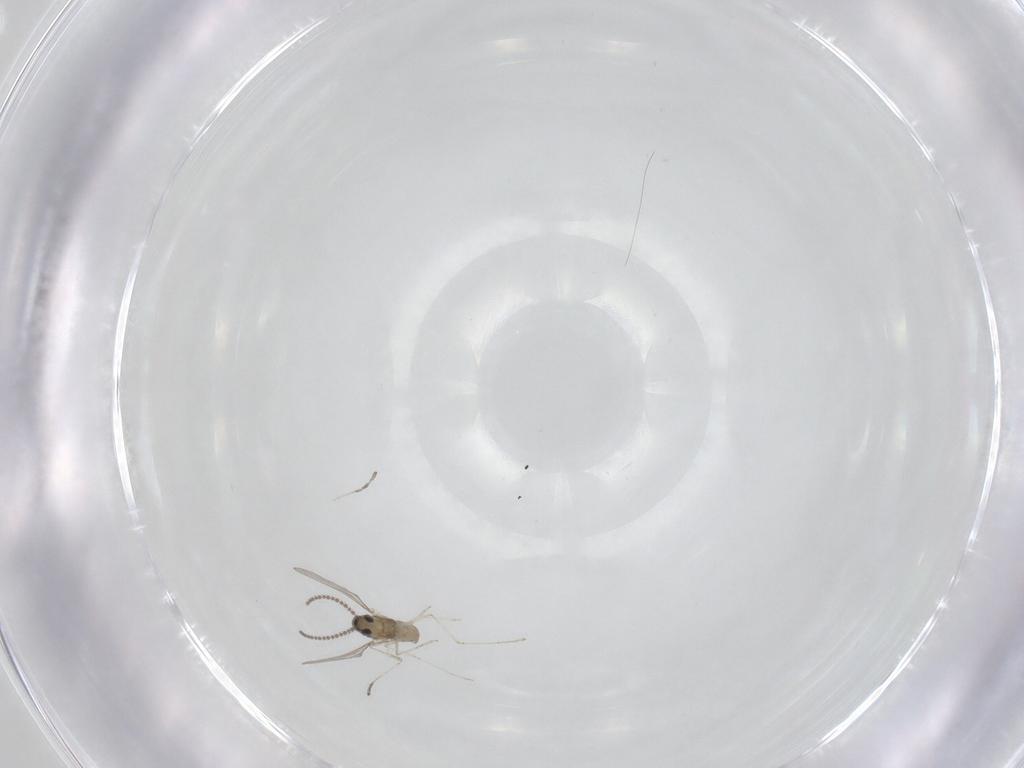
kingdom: Animalia
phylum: Arthropoda
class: Insecta
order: Diptera
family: Cecidomyiidae
